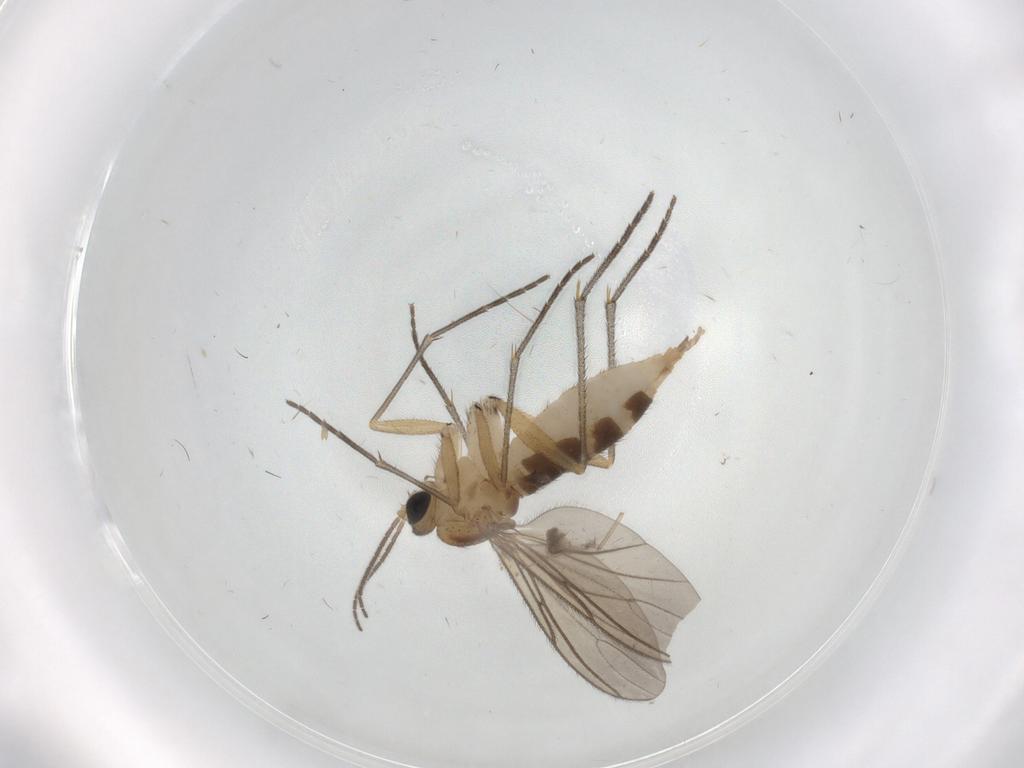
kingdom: Animalia
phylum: Arthropoda
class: Insecta
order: Diptera
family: Sciaridae
